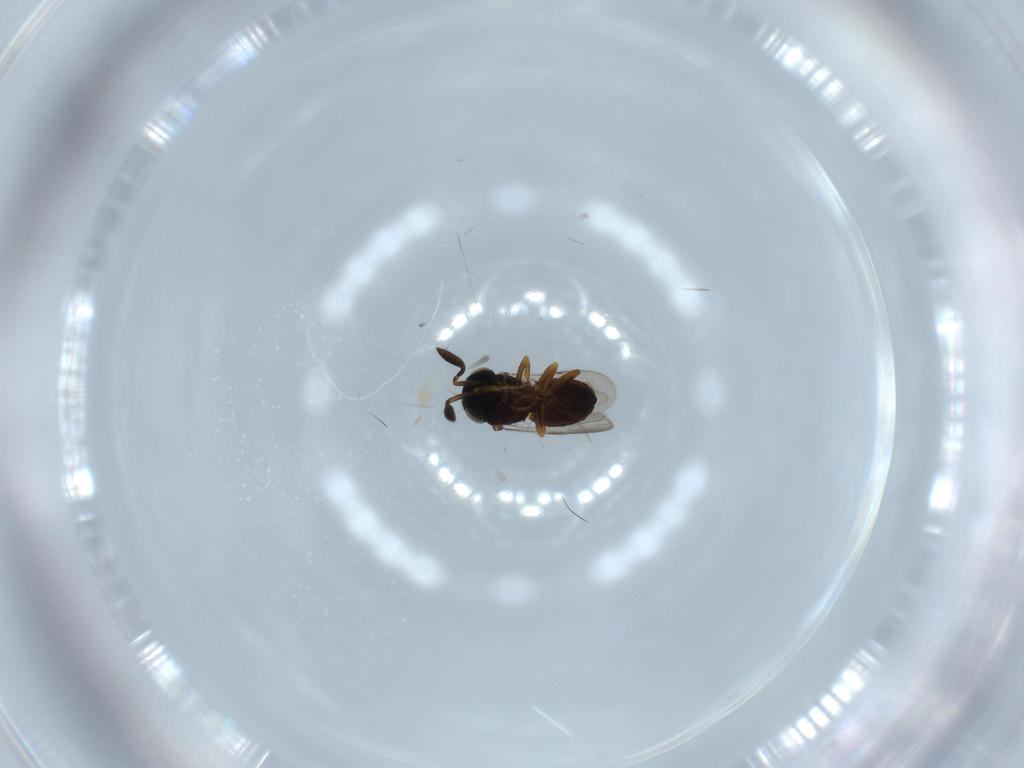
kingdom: Animalia
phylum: Arthropoda
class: Insecta
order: Hymenoptera
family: Scelionidae
